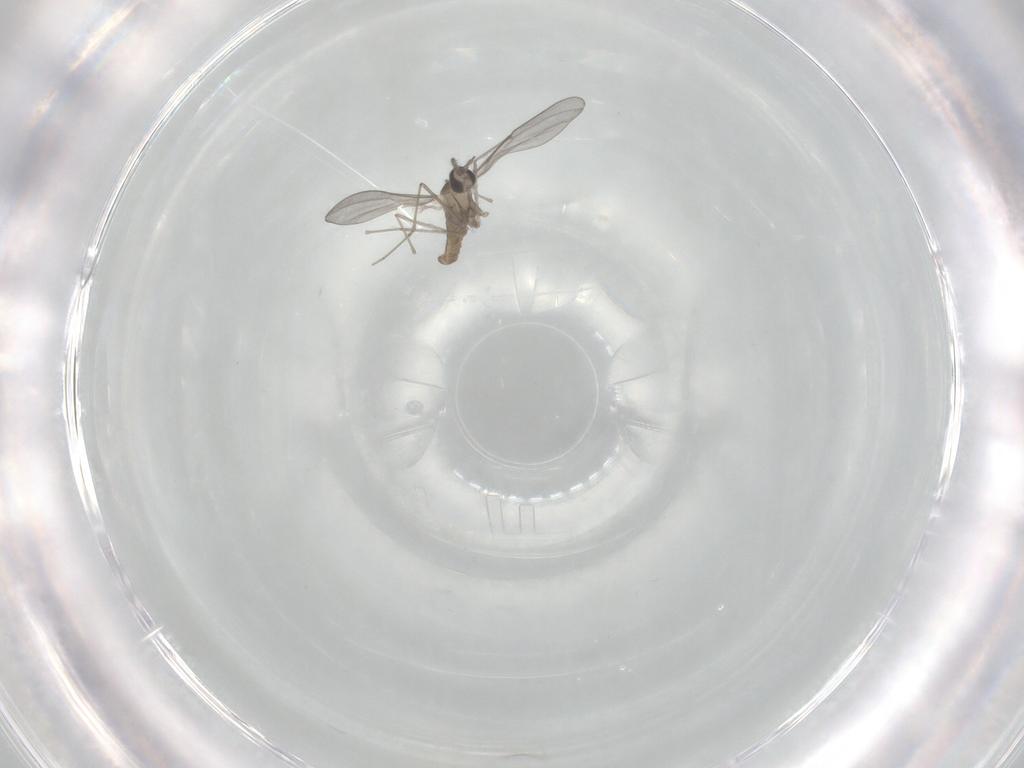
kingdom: Animalia
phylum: Arthropoda
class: Insecta
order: Diptera
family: Cecidomyiidae
